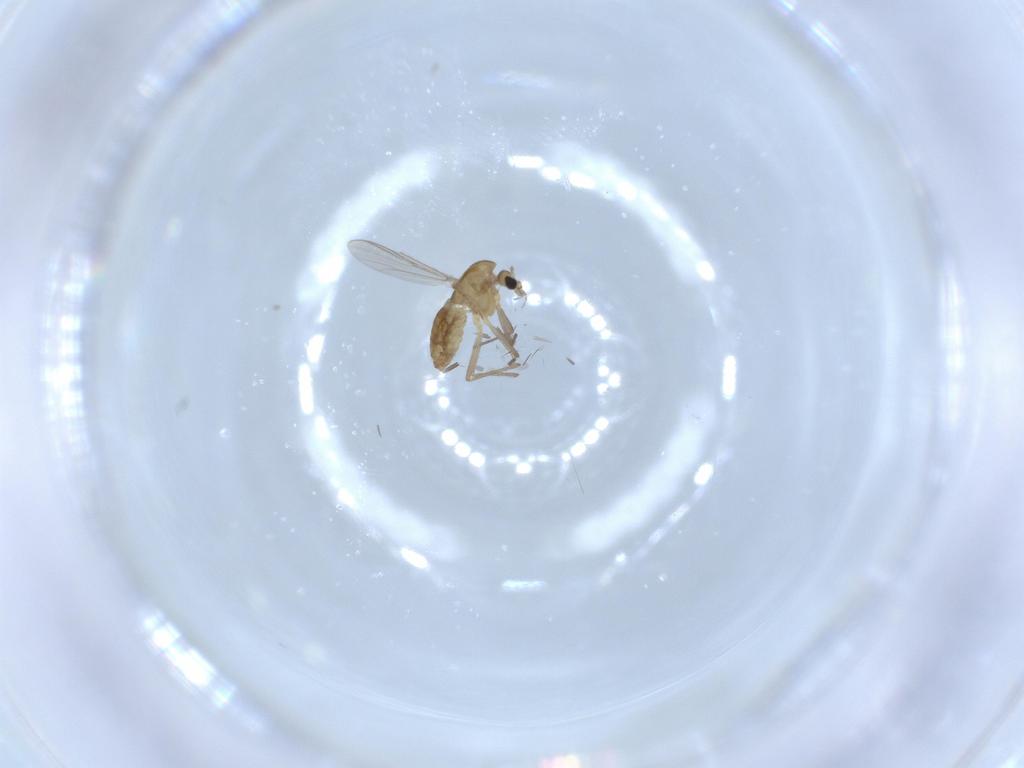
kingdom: Animalia
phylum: Arthropoda
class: Insecta
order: Diptera
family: Chironomidae
